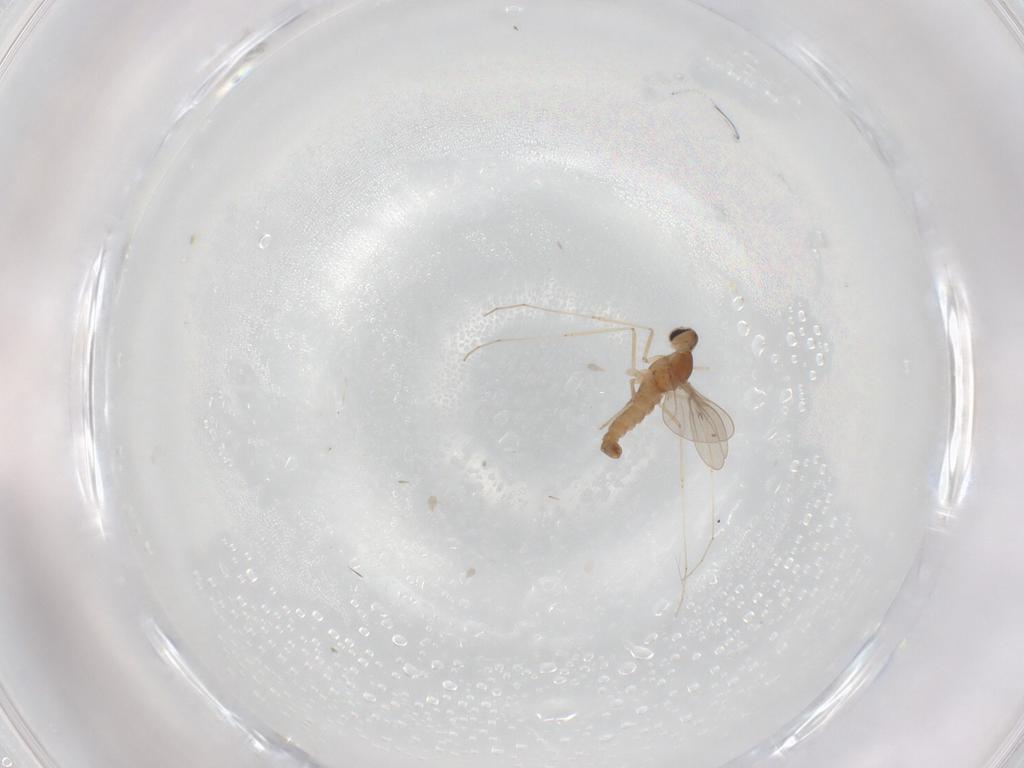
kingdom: Animalia
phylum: Arthropoda
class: Insecta
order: Diptera
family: Cecidomyiidae
